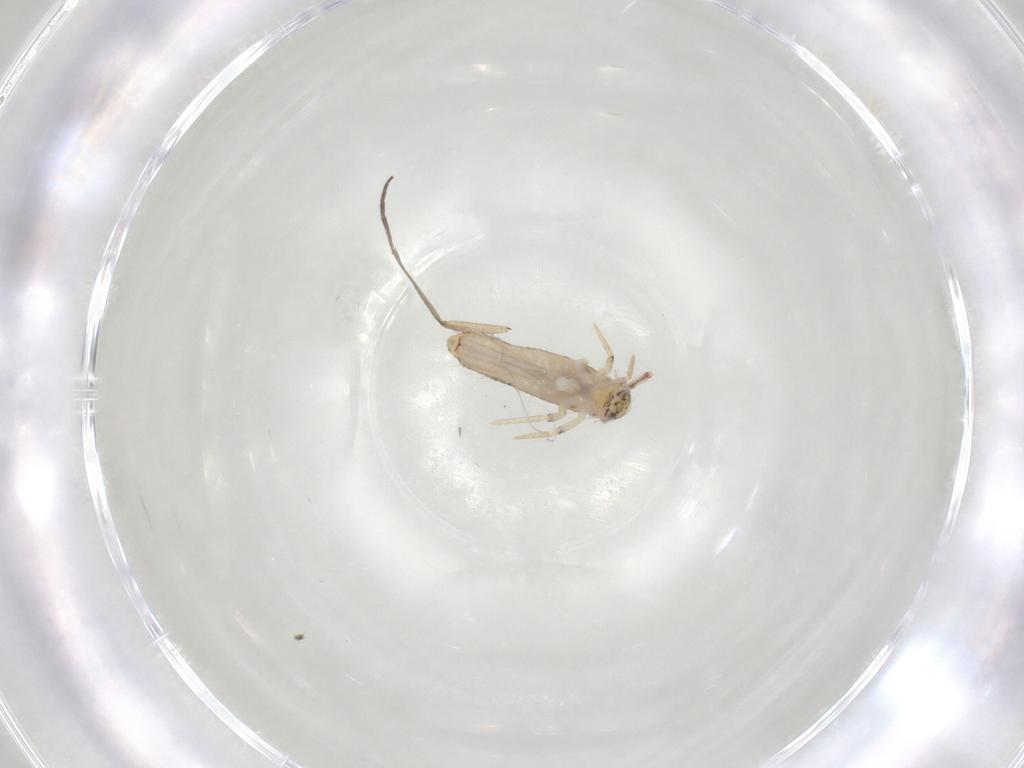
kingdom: Animalia
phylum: Arthropoda
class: Collembola
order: Entomobryomorpha
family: Entomobryidae
